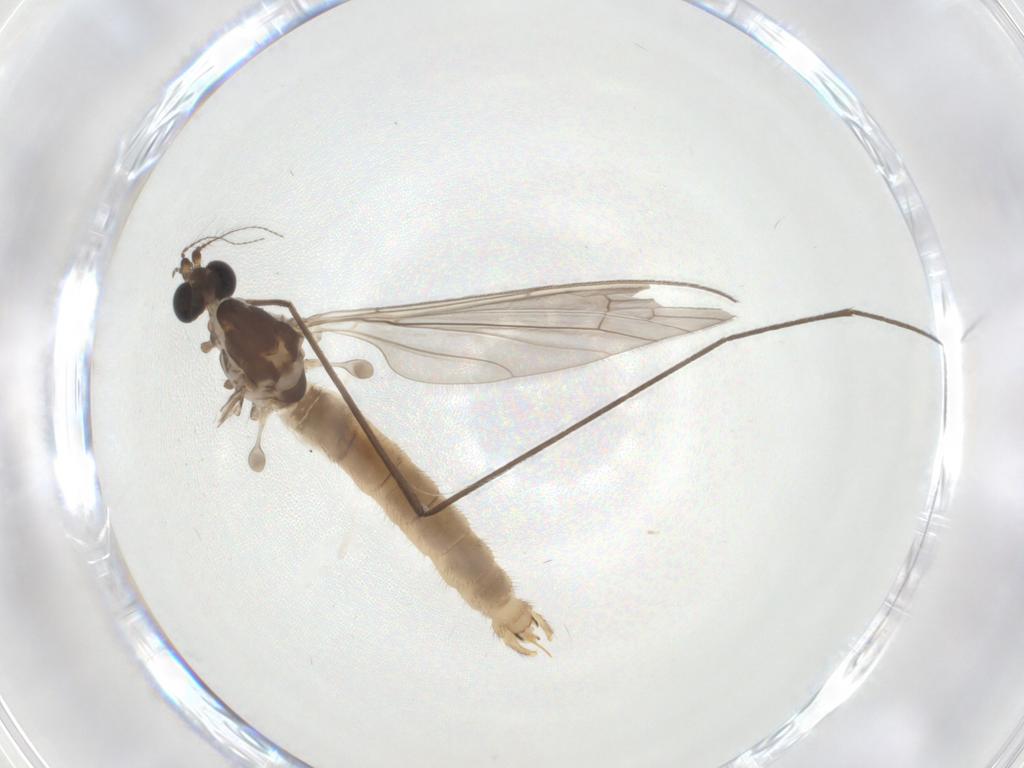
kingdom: Animalia
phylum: Arthropoda
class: Insecta
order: Diptera
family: Limoniidae
